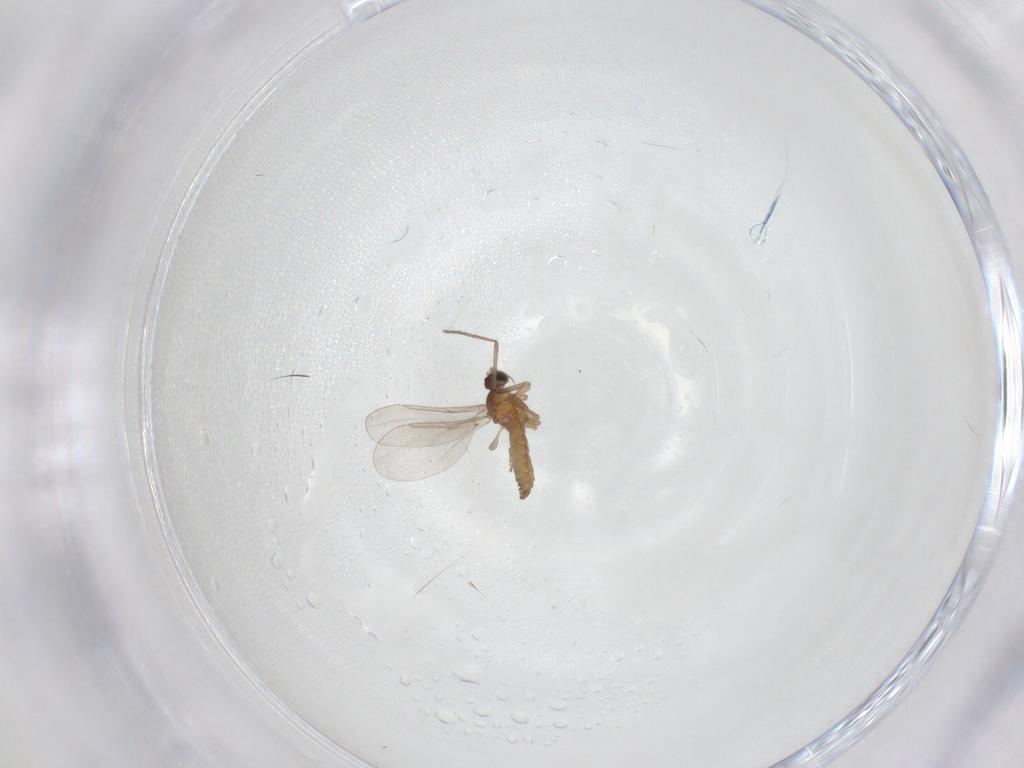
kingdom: Animalia
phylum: Arthropoda
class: Insecta
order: Diptera
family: Cecidomyiidae
